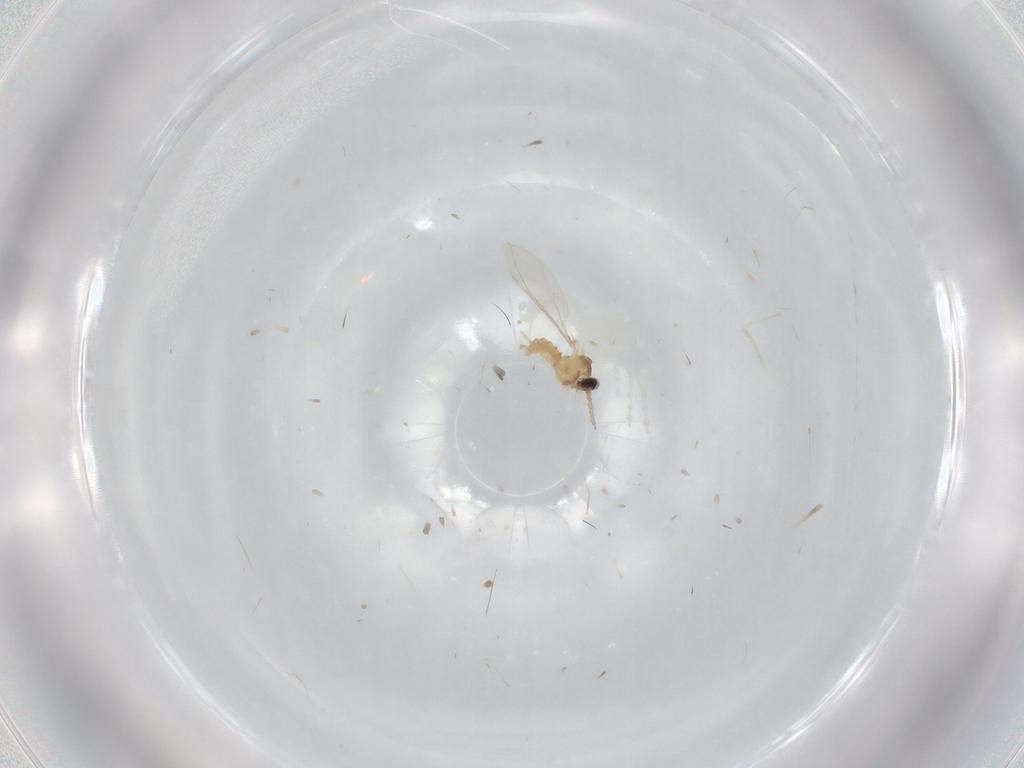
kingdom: Animalia
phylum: Arthropoda
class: Insecta
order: Diptera
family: Cecidomyiidae
